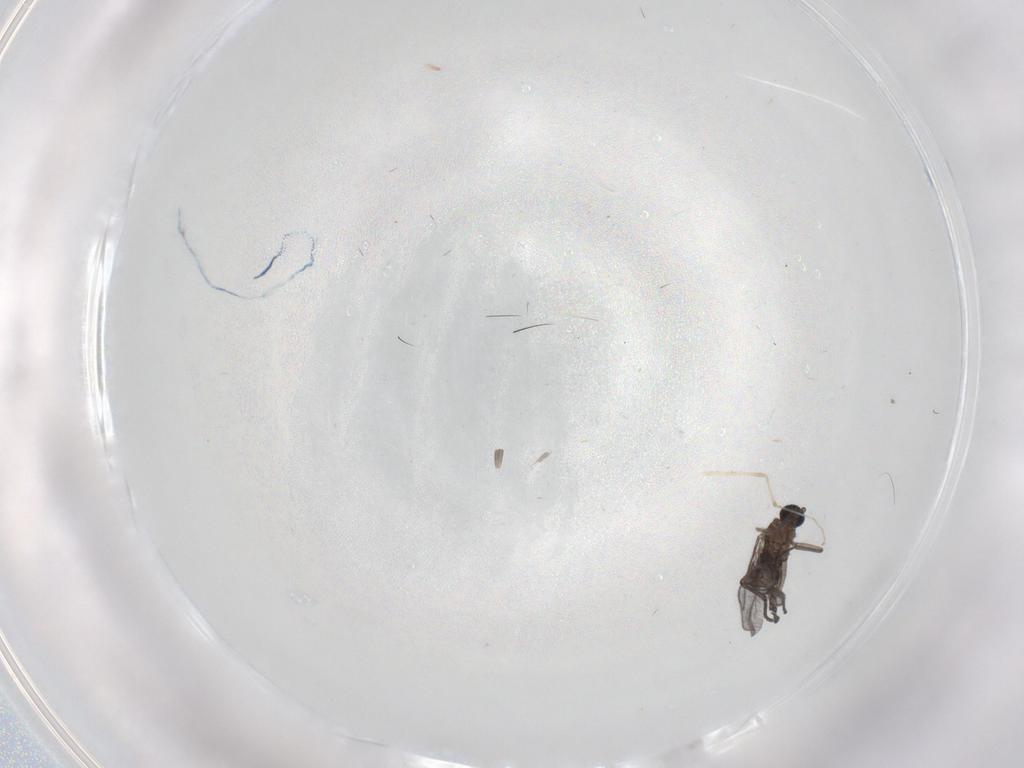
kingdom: Animalia
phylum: Arthropoda
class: Insecta
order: Diptera
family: Sciaridae
